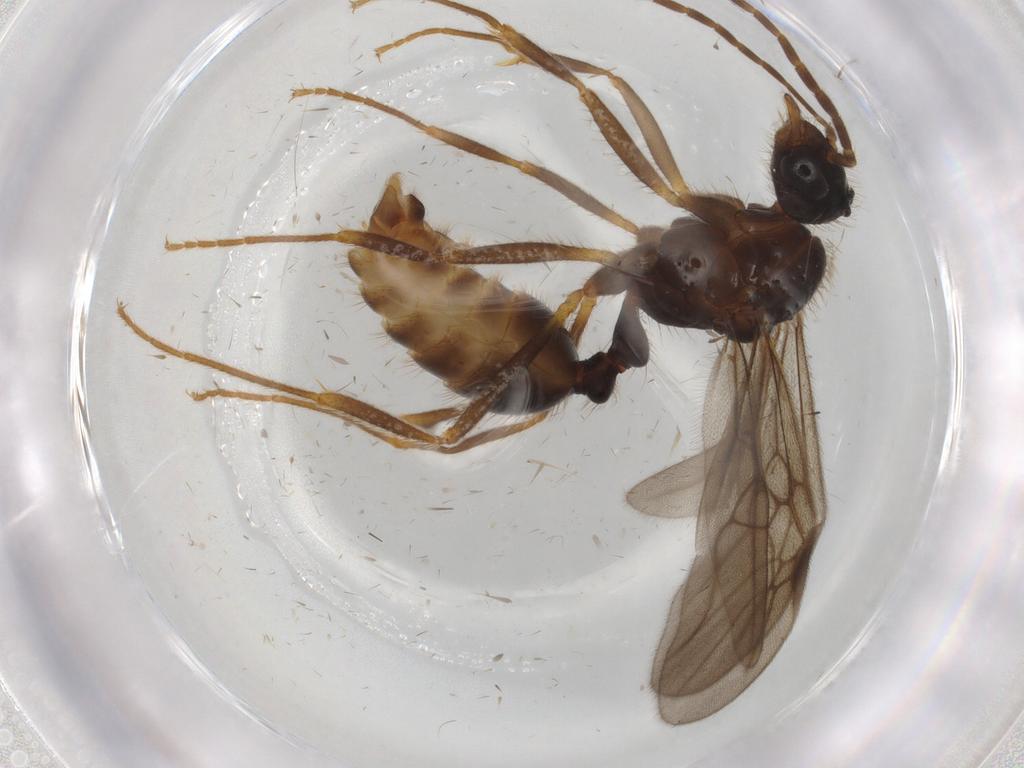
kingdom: Animalia
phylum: Arthropoda
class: Insecta
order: Hymenoptera
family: Formicidae
